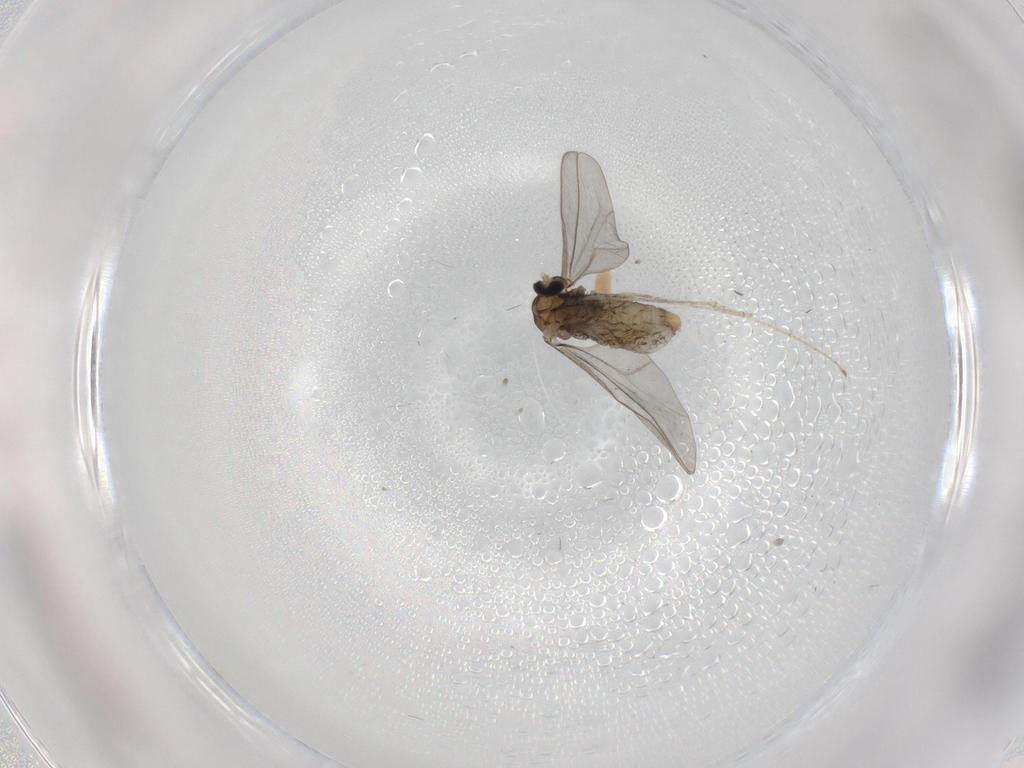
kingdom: Animalia
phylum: Arthropoda
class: Insecta
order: Diptera
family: Cecidomyiidae
